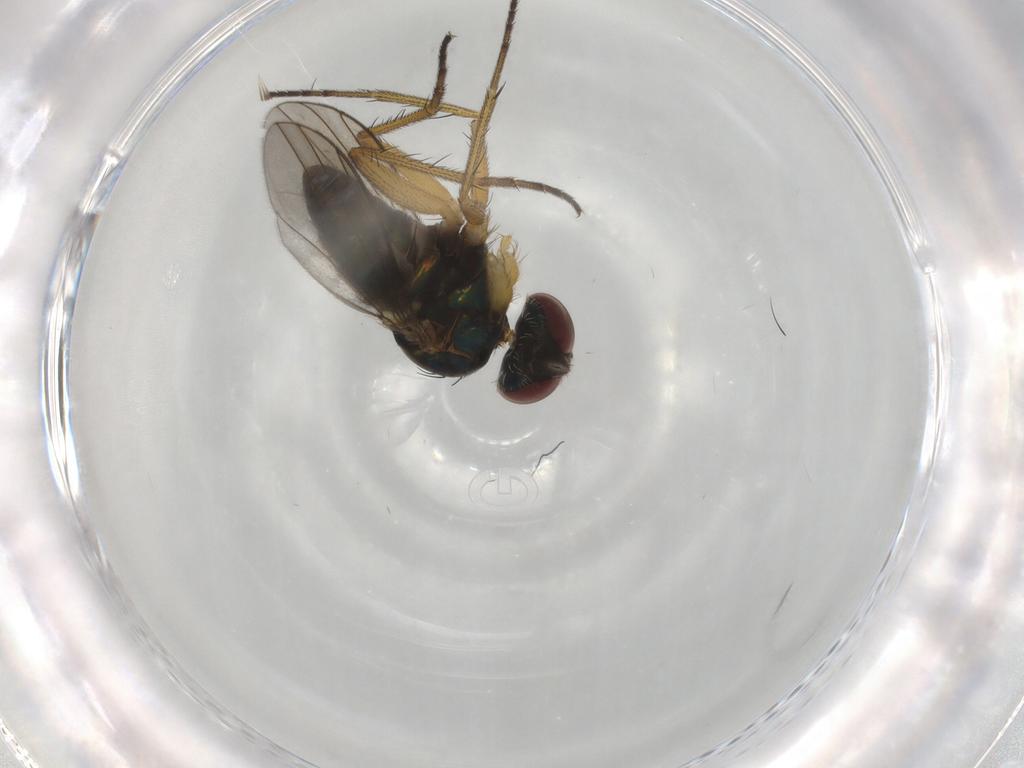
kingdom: Animalia
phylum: Arthropoda
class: Insecta
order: Diptera
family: Dolichopodidae
